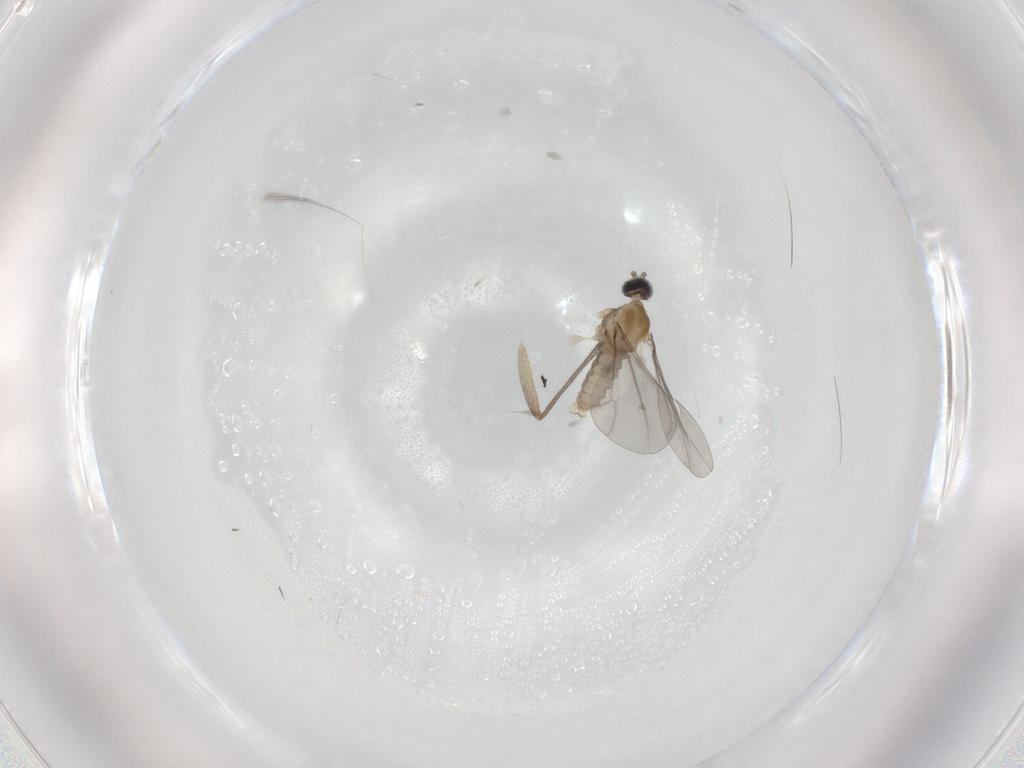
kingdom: Animalia
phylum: Arthropoda
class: Insecta
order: Diptera
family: Cecidomyiidae
